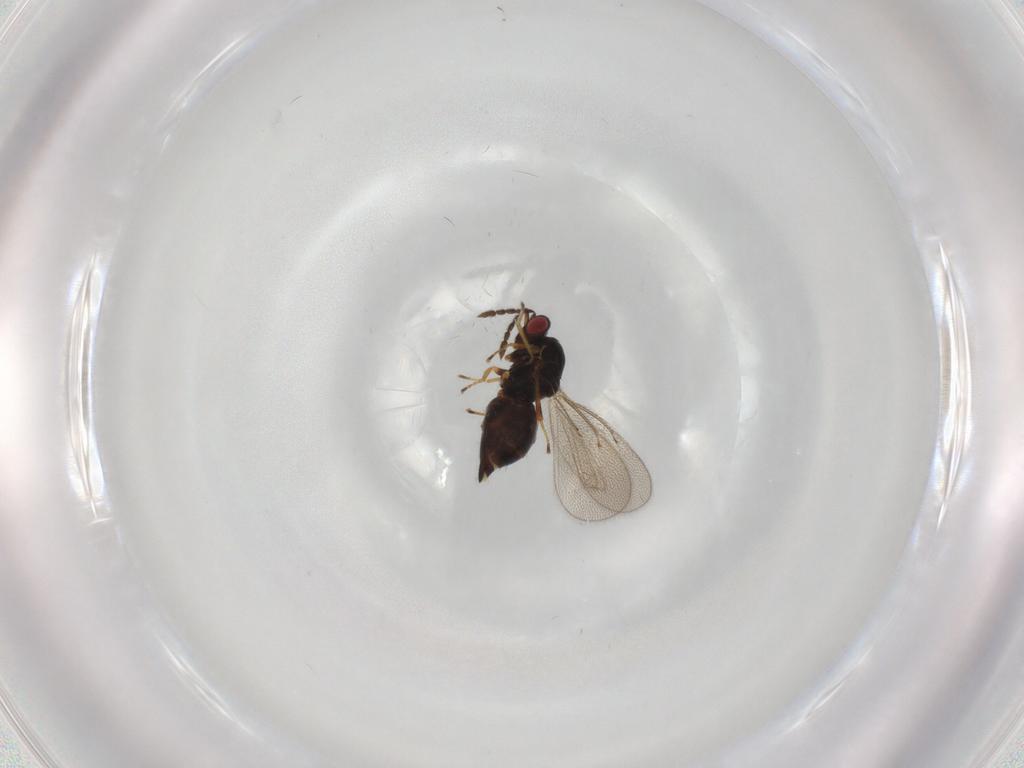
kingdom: Animalia
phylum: Arthropoda
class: Insecta
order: Hymenoptera
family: Eulophidae
